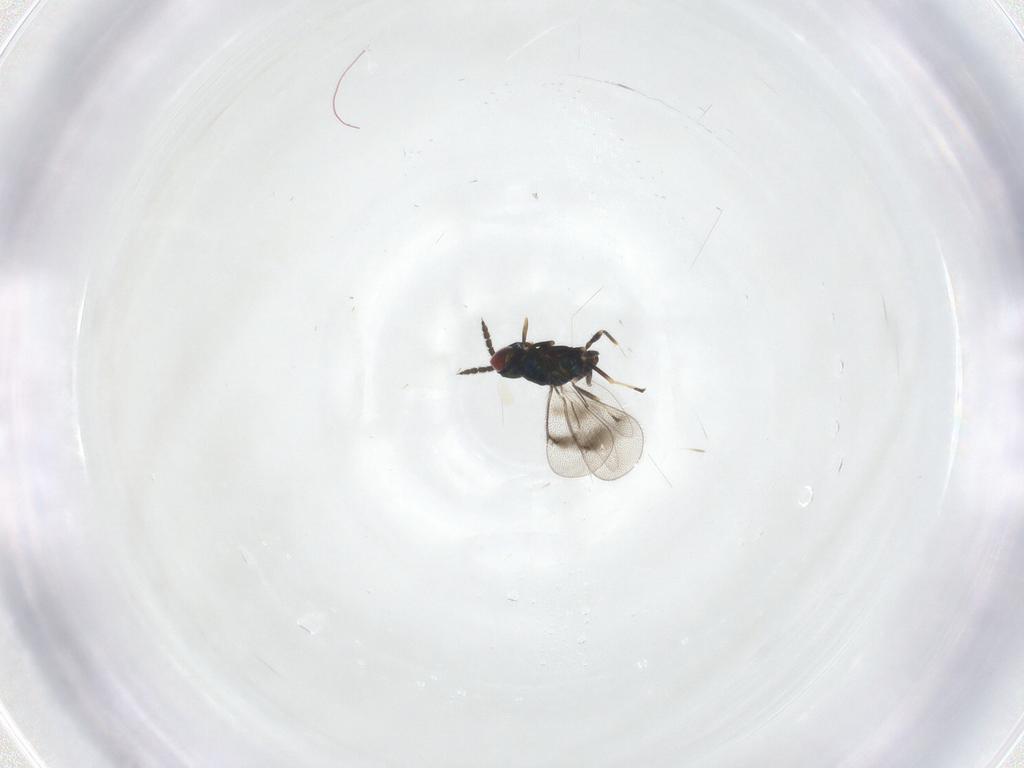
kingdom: Animalia
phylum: Arthropoda
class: Insecta
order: Hymenoptera
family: Eulophidae
